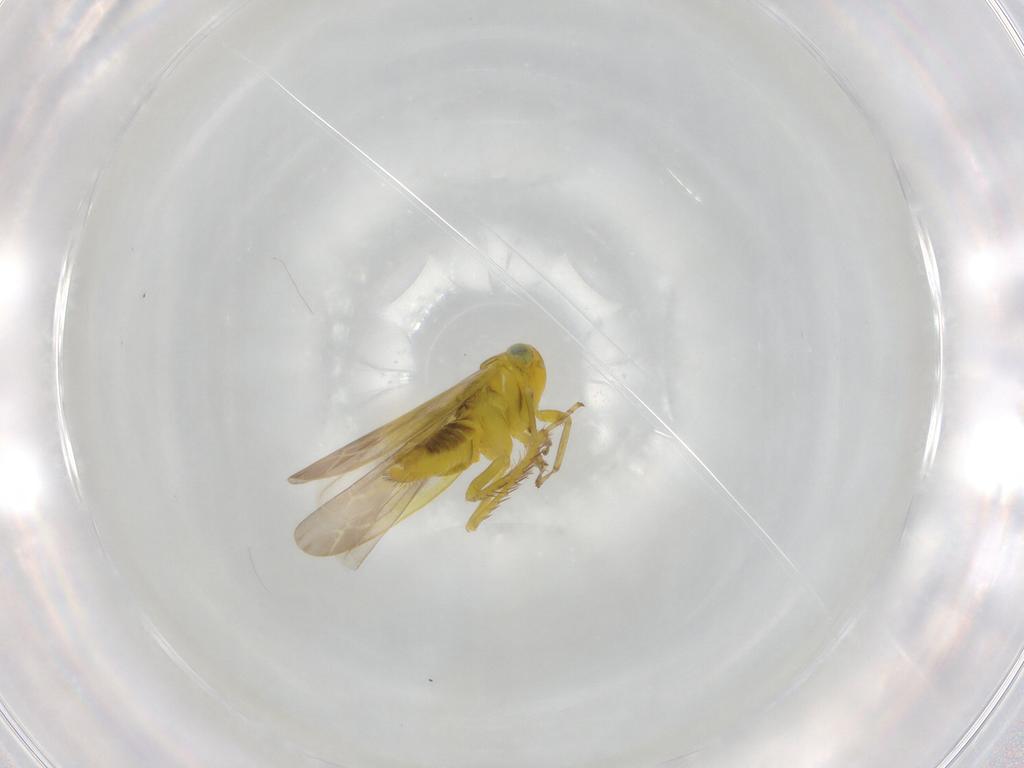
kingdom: Animalia
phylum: Arthropoda
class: Insecta
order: Hemiptera
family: Cicadellidae
